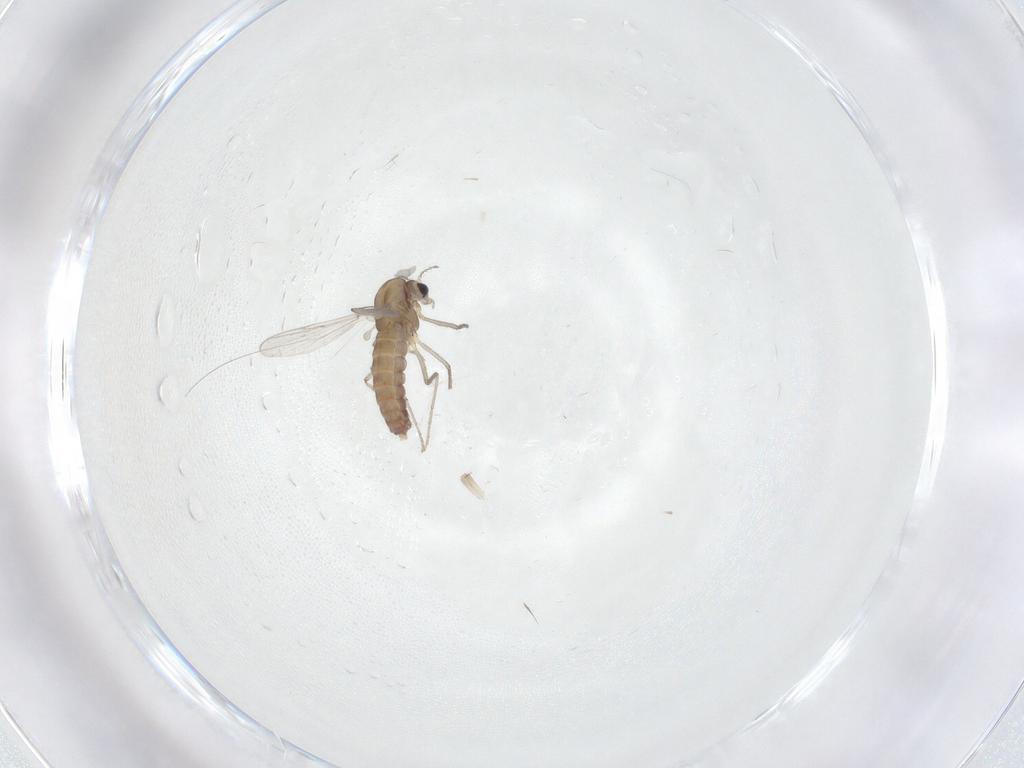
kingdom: Animalia
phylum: Arthropoda
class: Insecta
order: Diptera
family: Chironomidae
